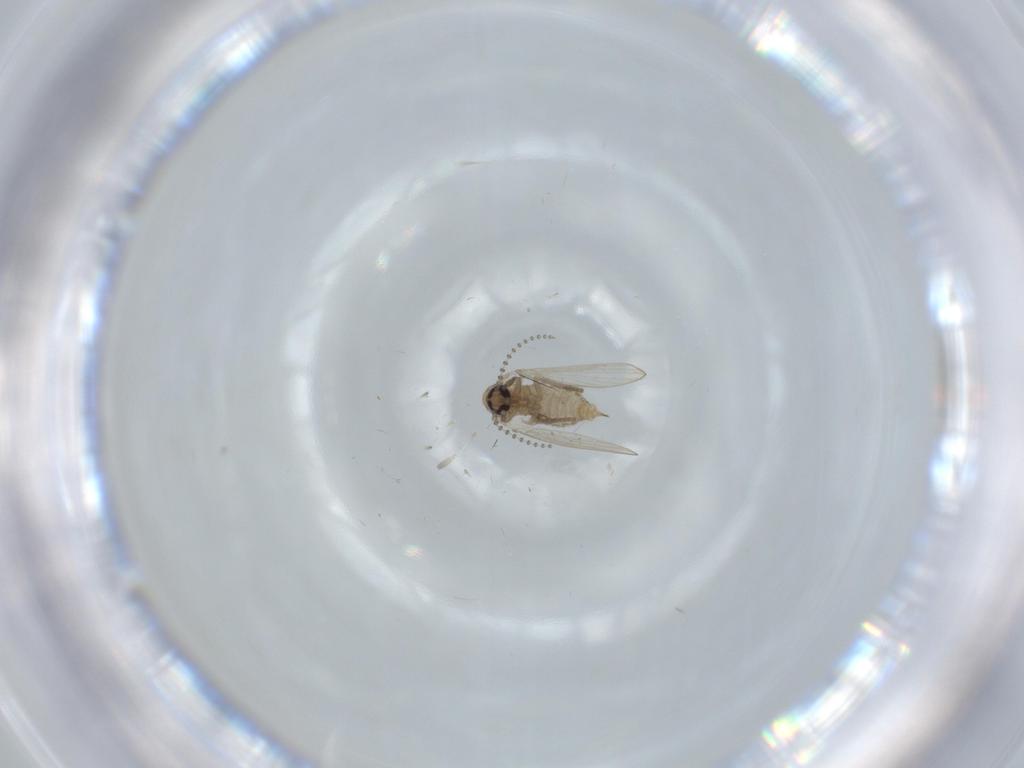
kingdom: Animalia
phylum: Arthropoda
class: Insecta
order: Diptera
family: Psychodidae
